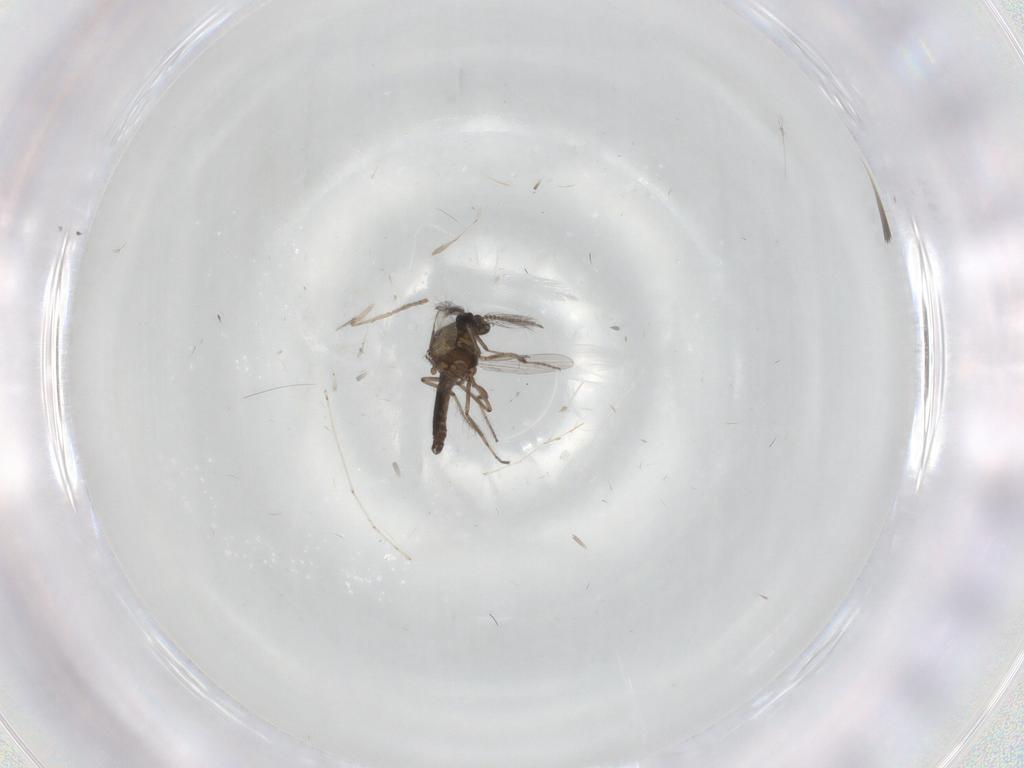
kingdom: Animalia
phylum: Arthropoda
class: Insecta
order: Diptera
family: Ceratopogonidae
